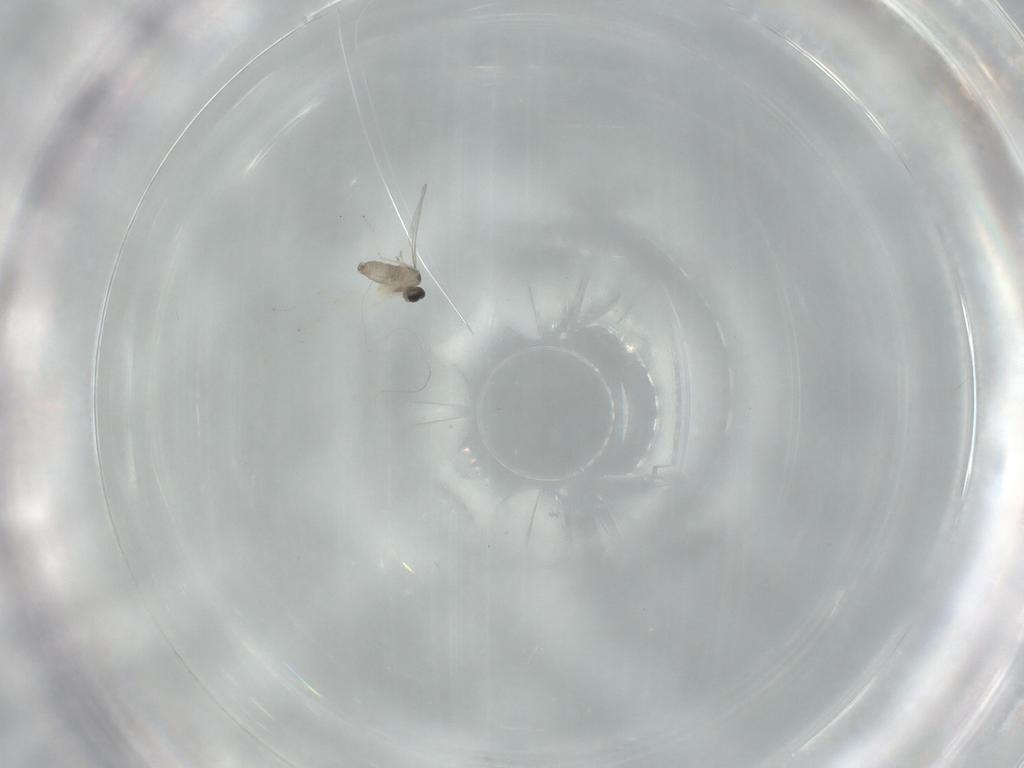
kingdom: Animalia
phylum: Arthropoda
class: Insecta
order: Diptera
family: Cecidomyiidae
